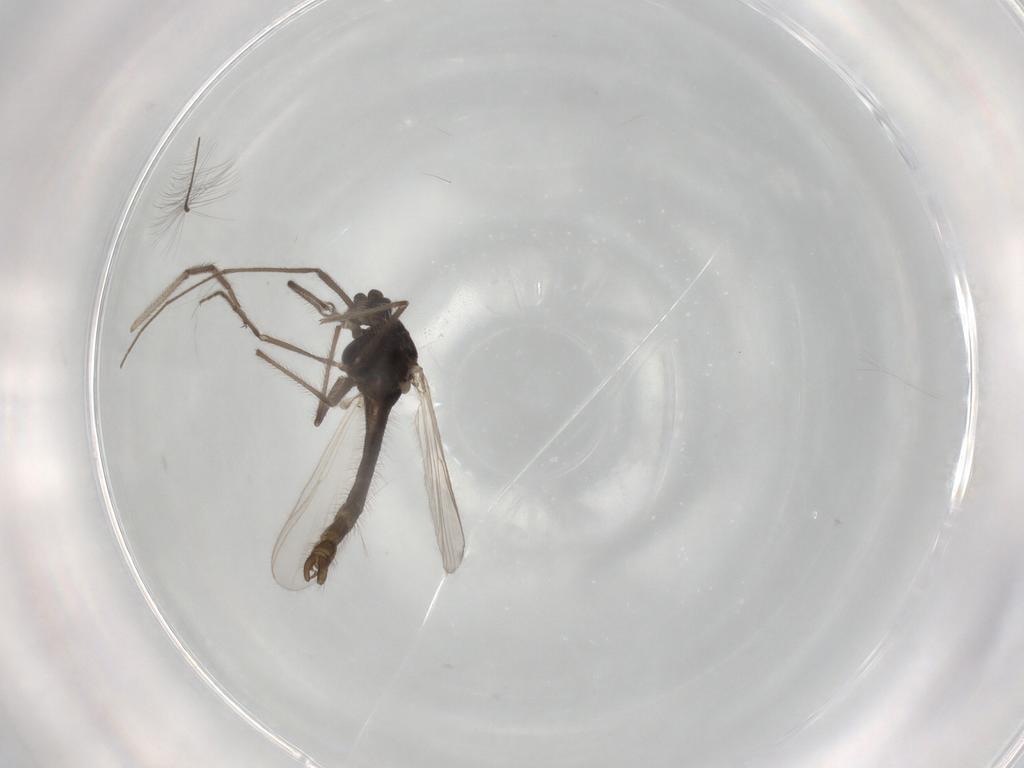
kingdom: Animalia
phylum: Arthropoda
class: Insecta
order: Diptera
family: Chironomidae
